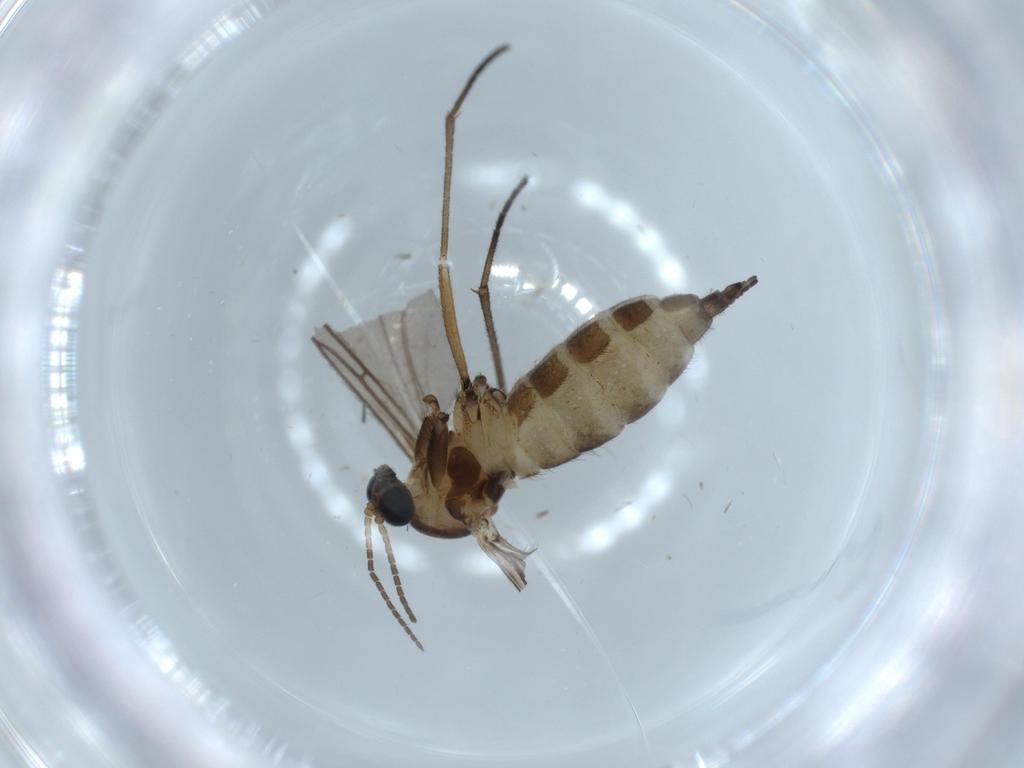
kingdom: Animalia
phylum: Arthropoda
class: Insecta
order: Diptera
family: Sciaridae
